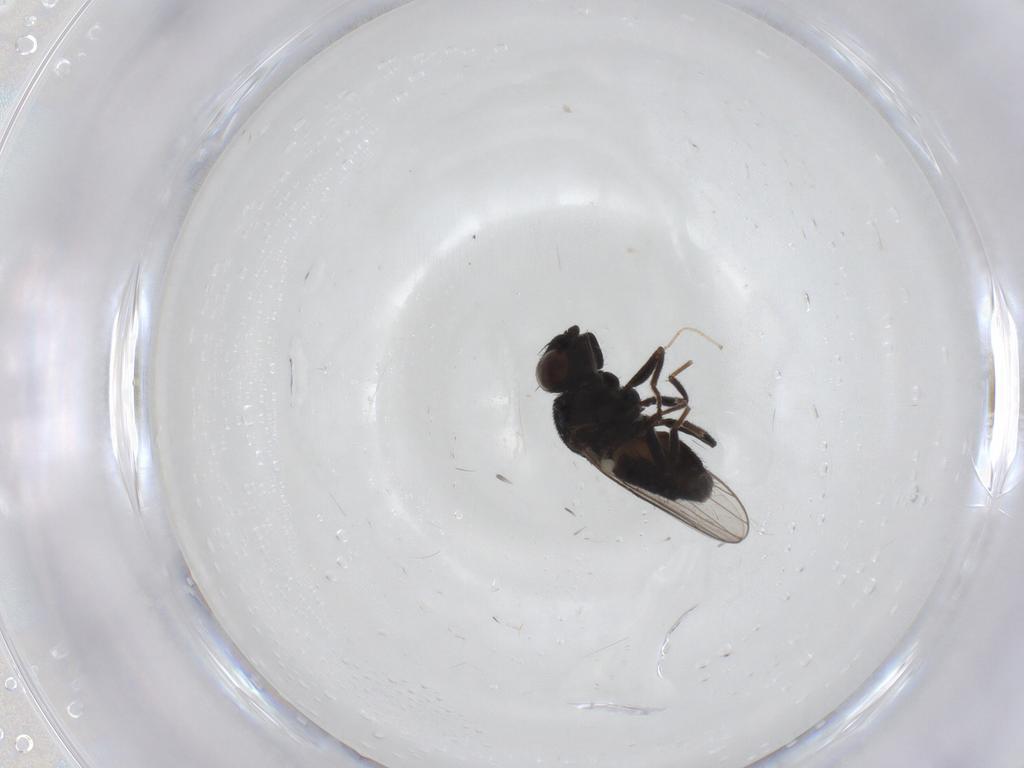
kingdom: Animalia
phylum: Arthropoda
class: Insecta
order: Diptera
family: Chloropidae
